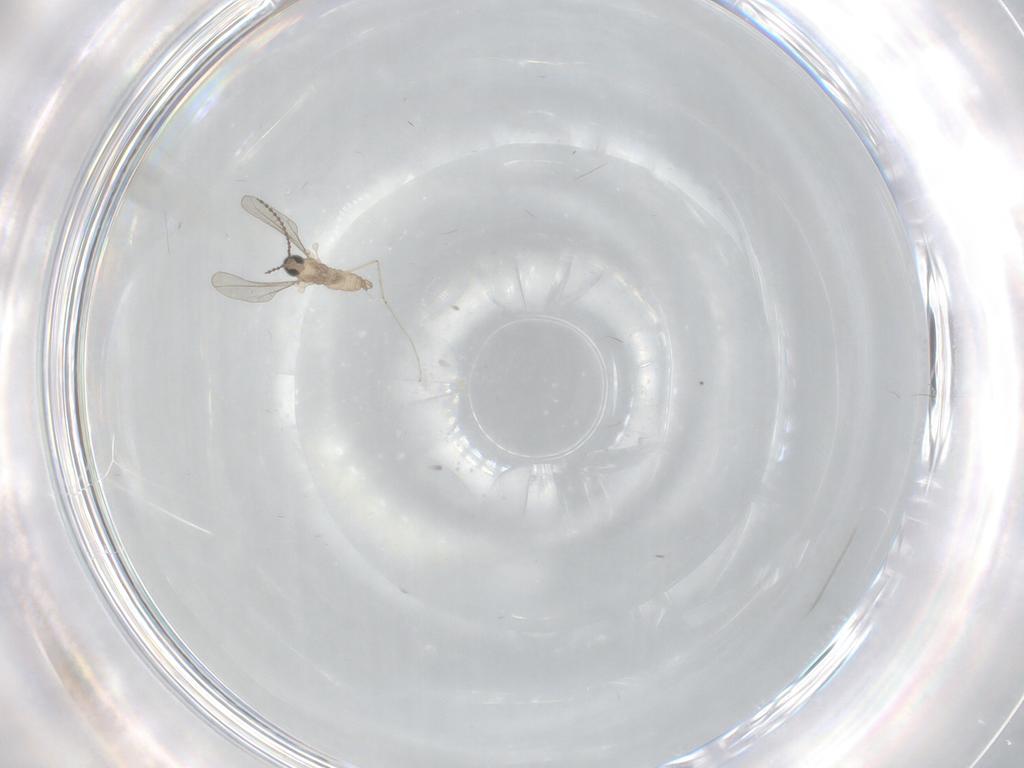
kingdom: Animalia
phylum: Arthropoda
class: Insecta
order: Diptera
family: Cecidomyiidae
